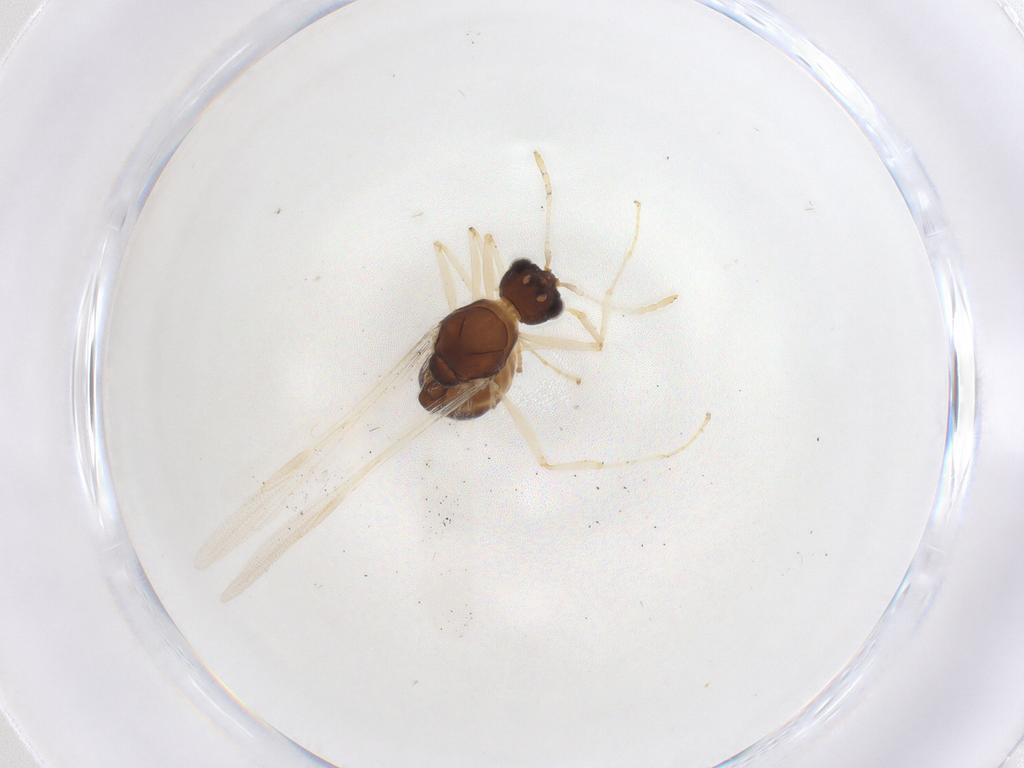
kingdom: Animalia
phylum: Arthropoda
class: Insecta
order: Hymenoptera
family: Formicidae
